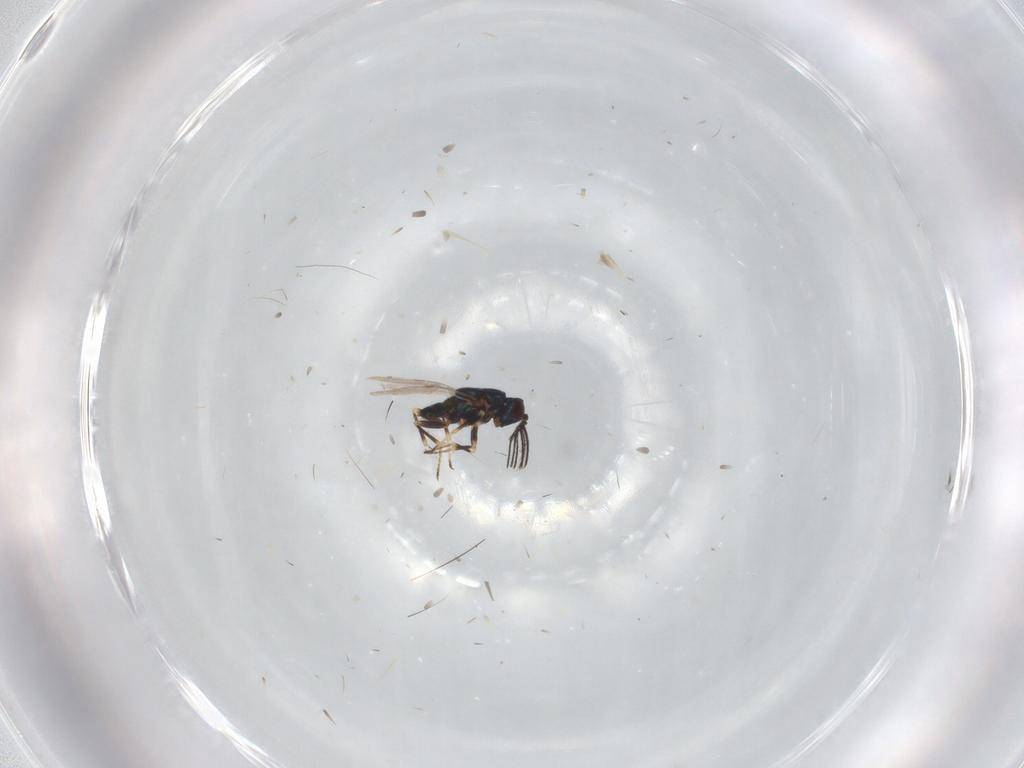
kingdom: Animalia
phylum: Arthropoda
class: Insecta
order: Hymenoptera
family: Encyrtidae
